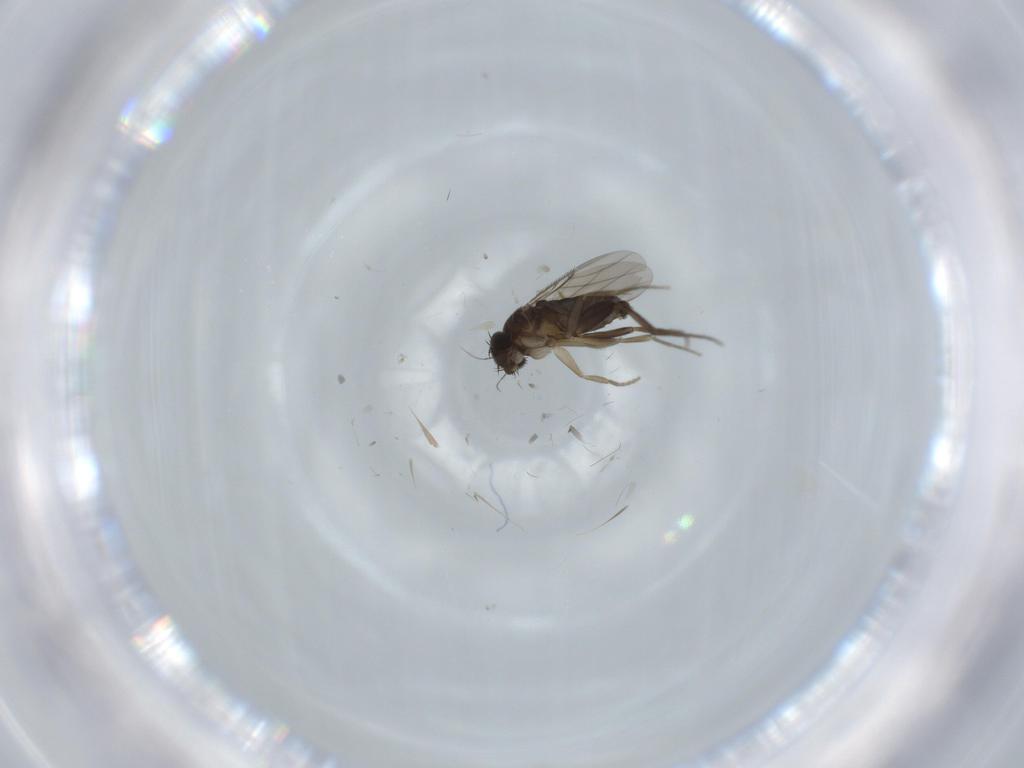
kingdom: Animalia
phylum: Arthropoda
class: Insecta
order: Diptera
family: Phoridae
